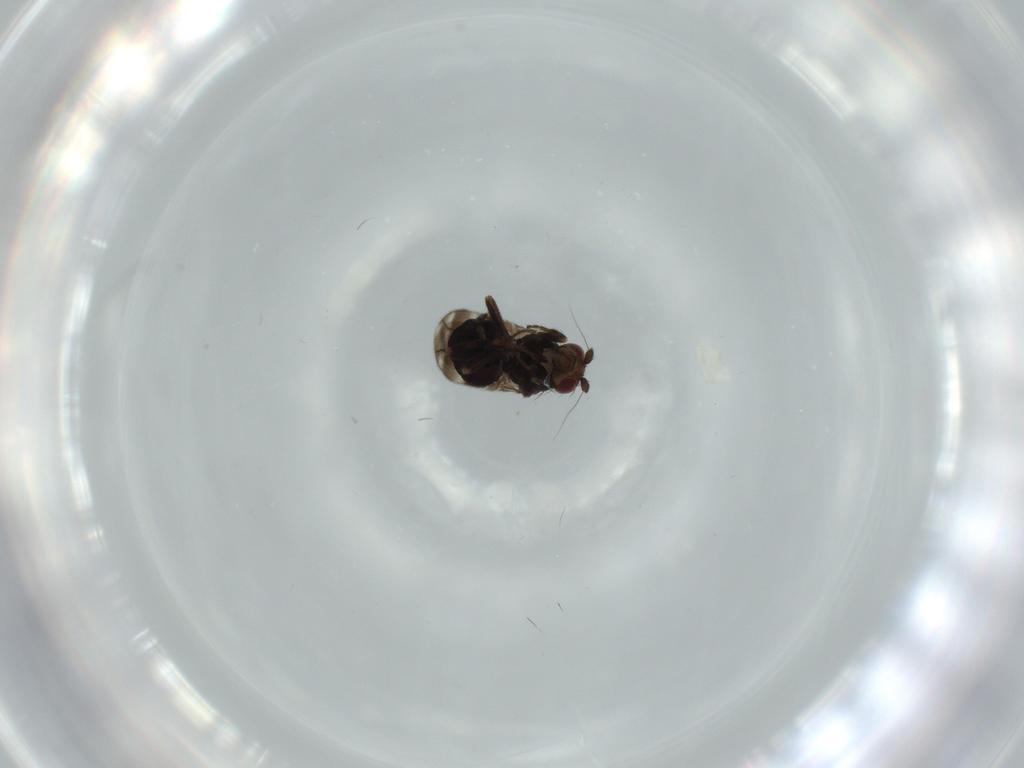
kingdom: Animalia
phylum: Arthropoda
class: Insecta
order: Diptera
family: Sphaeroceridae
